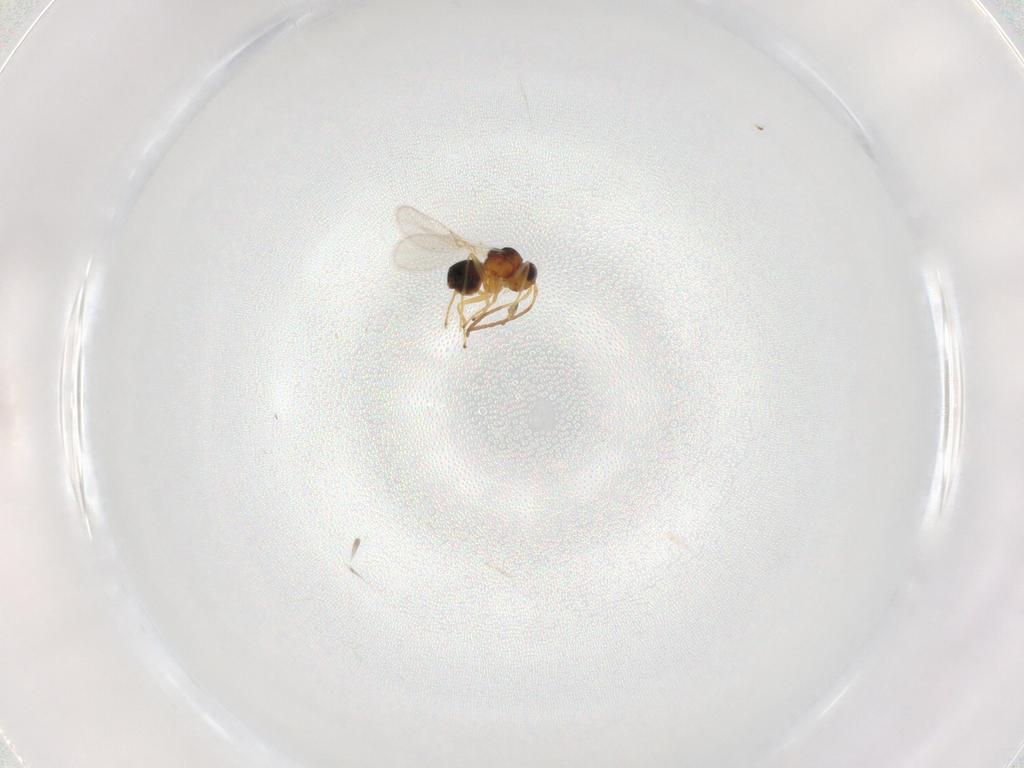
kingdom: Animalia
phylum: Arthropoda
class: Insecta
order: Hymenoptera
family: Figitidae
